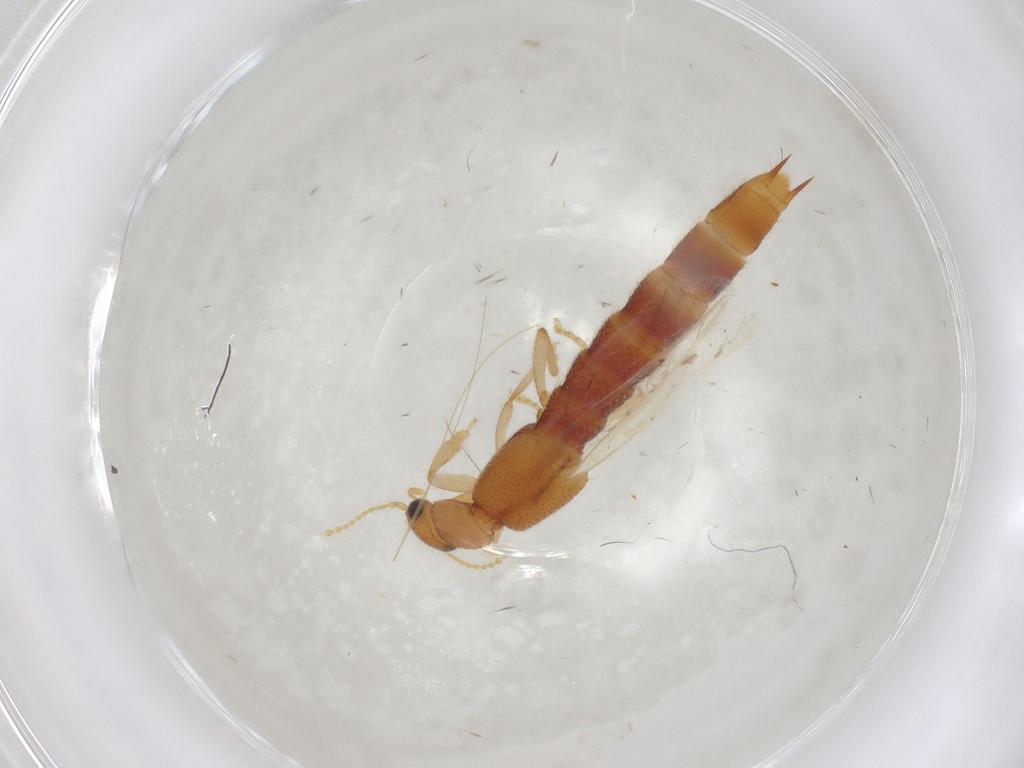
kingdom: Animalia
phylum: Arthropoda
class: Insecta
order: Coleoptera
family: Staphylinidae
